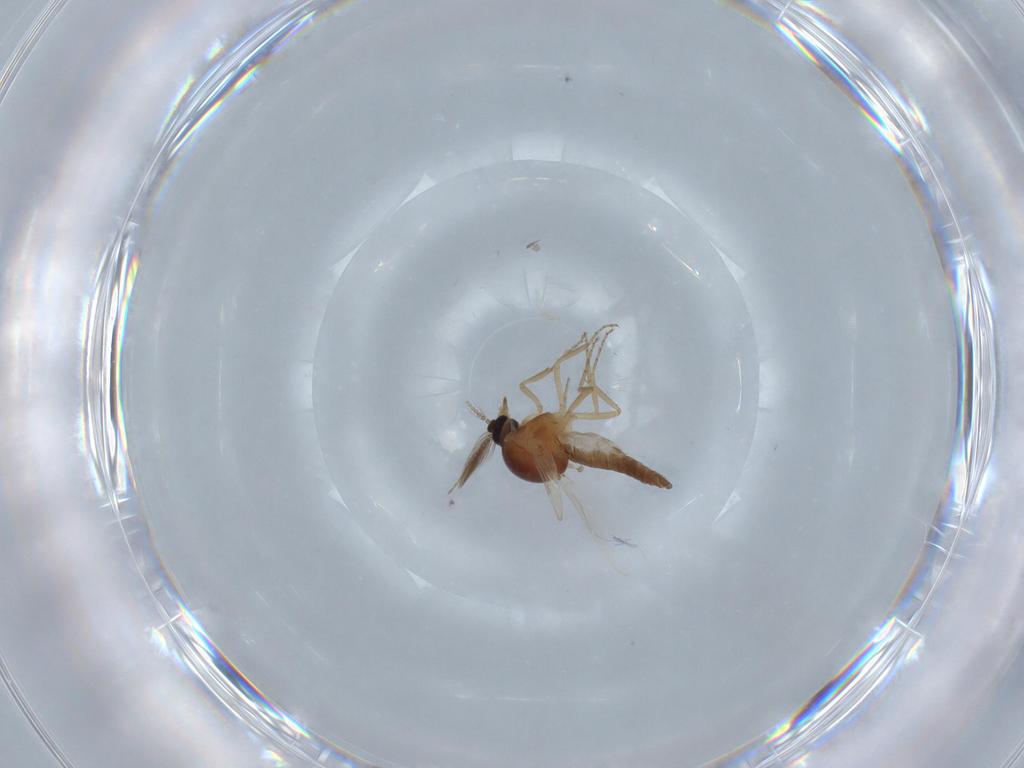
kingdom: Animalia
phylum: Arthropoda
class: Insecta
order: Diptera
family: Ceratopogonidae
